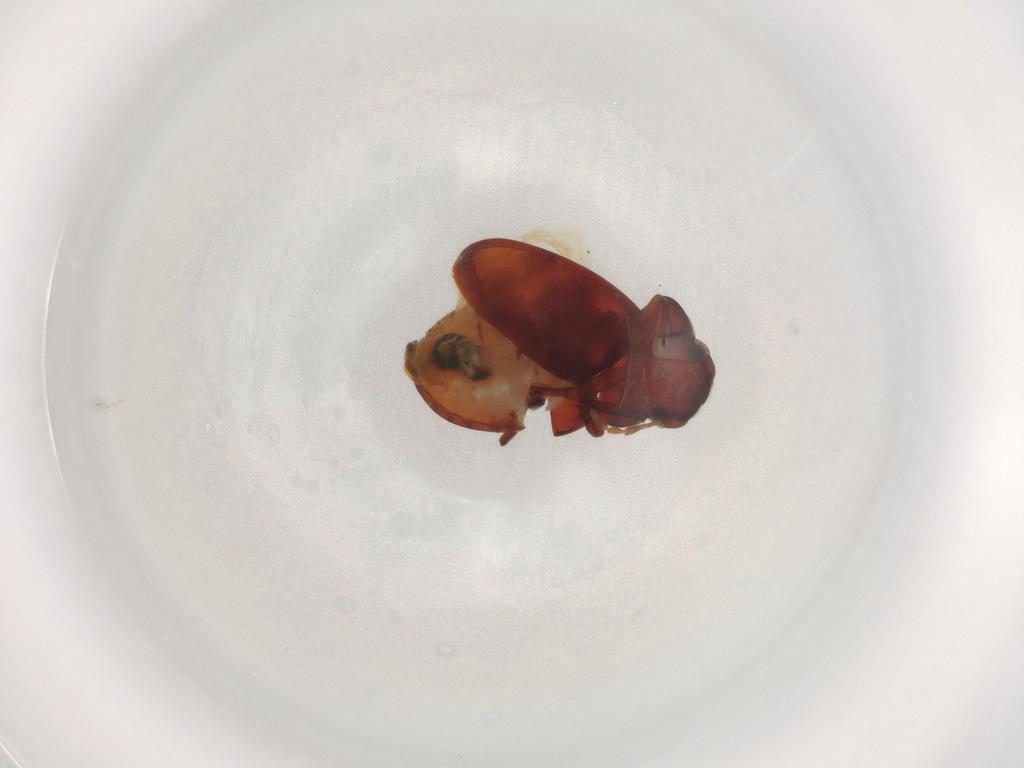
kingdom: Animalia
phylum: Arthropoda
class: Insecta
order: Coleoptera
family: Ptinidae
